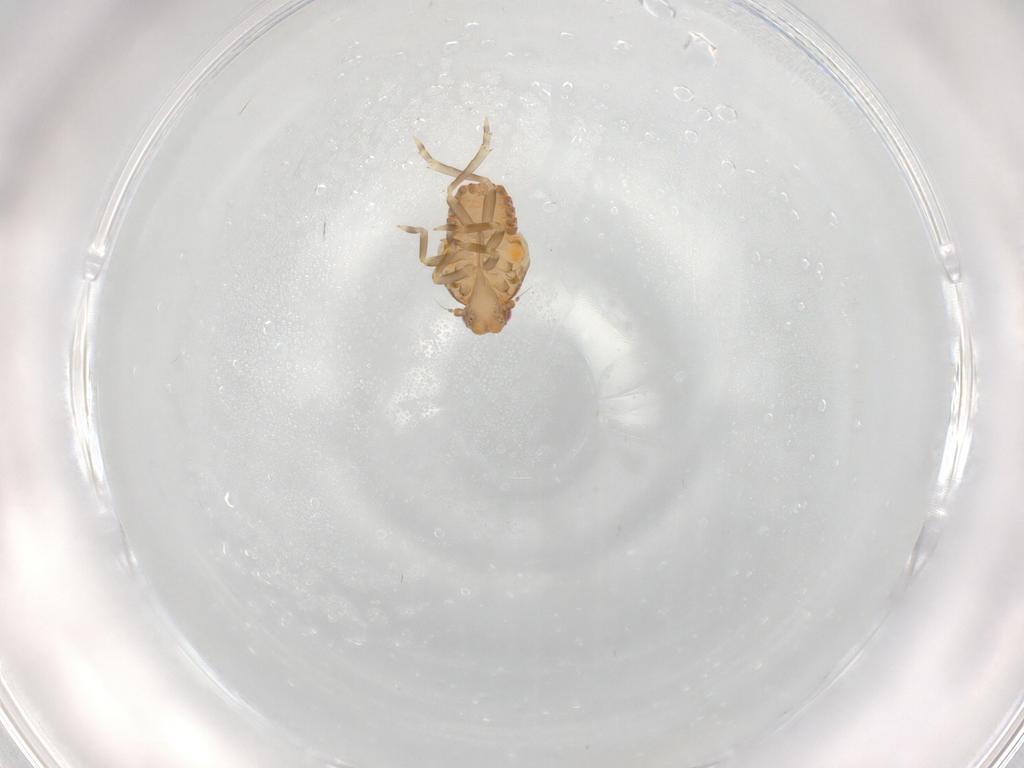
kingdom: Animalia
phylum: Arthropoda
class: Insecta
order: Hemiptera
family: Flatidae
